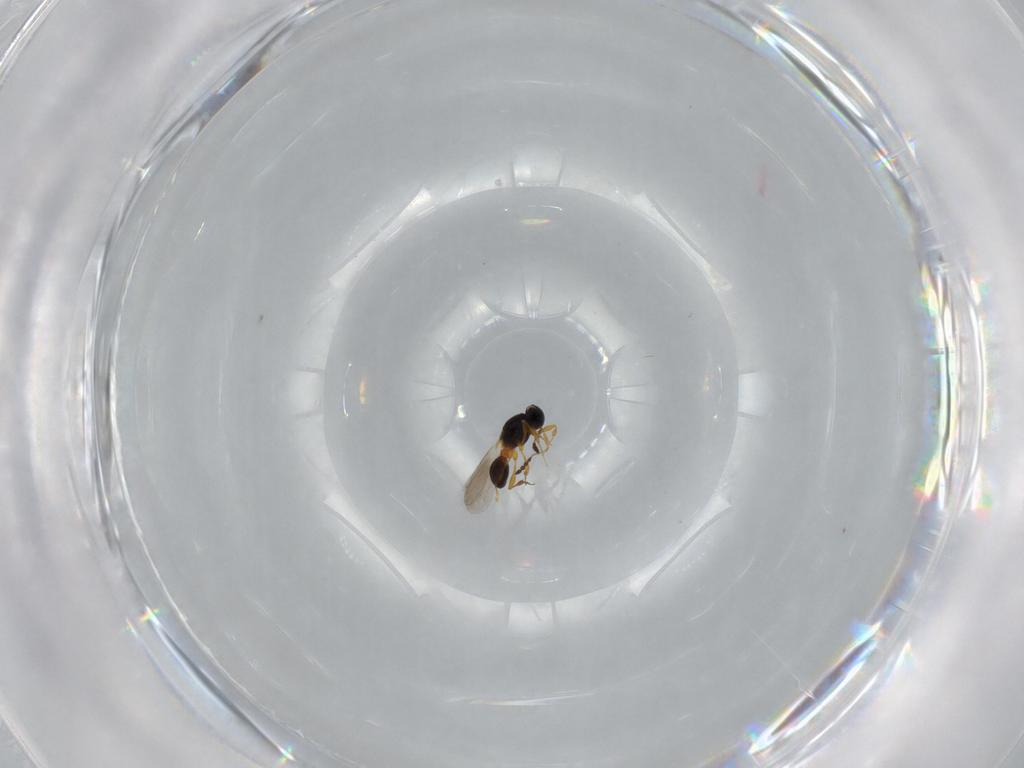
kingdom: Animalia
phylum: Arthropoda
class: Insecta
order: Hymenoptera
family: Platygastridae
